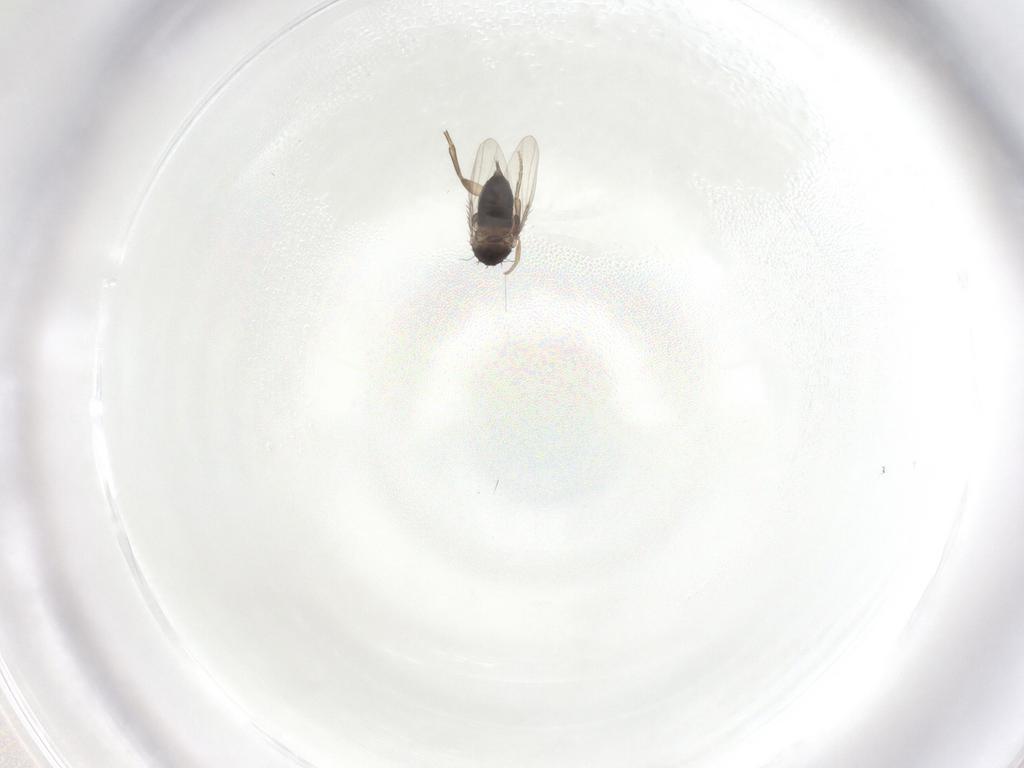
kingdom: Animalia
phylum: Arthropoda
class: Insecta
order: Diptera
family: Phoridae
